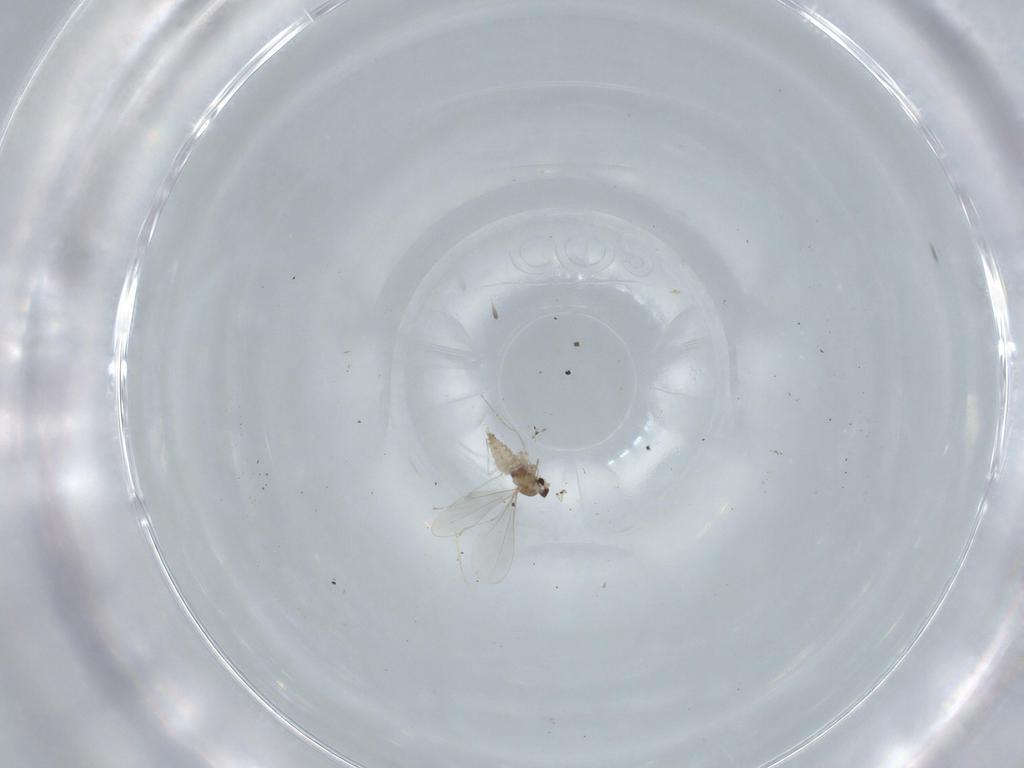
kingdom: Animalia
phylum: Arthropoda
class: Insecta
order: Diptera
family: Cecidomyiidae
